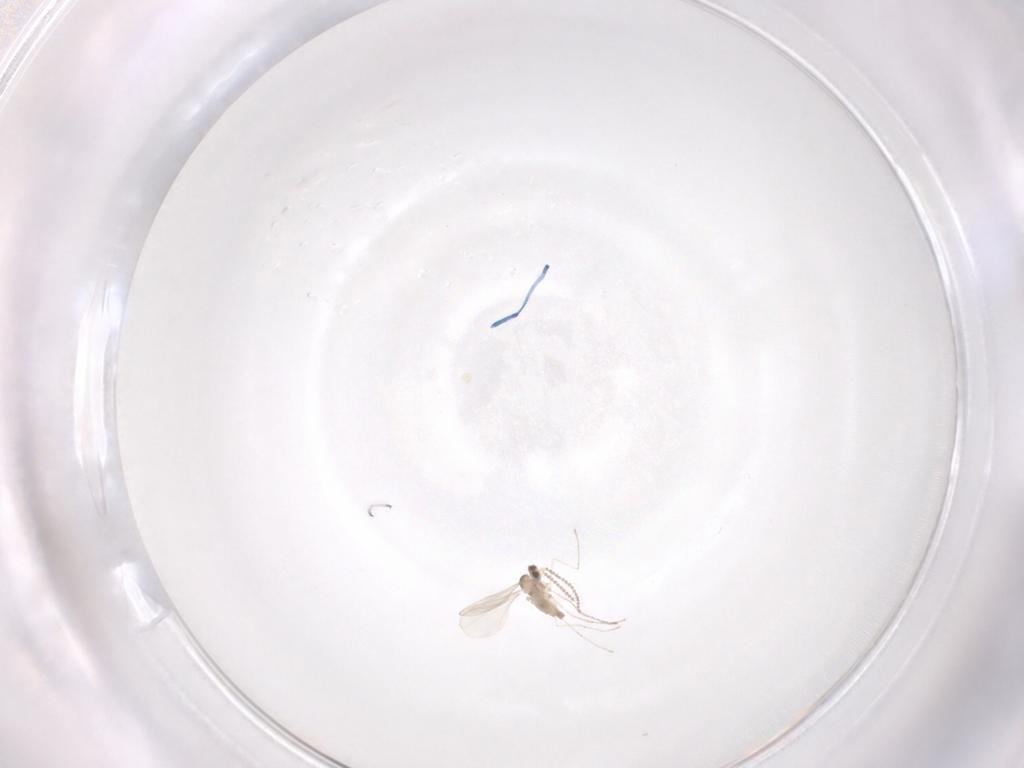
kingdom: Animalia
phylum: Arthropoda
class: Insecta
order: Diptera
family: Cecidomyiidae
